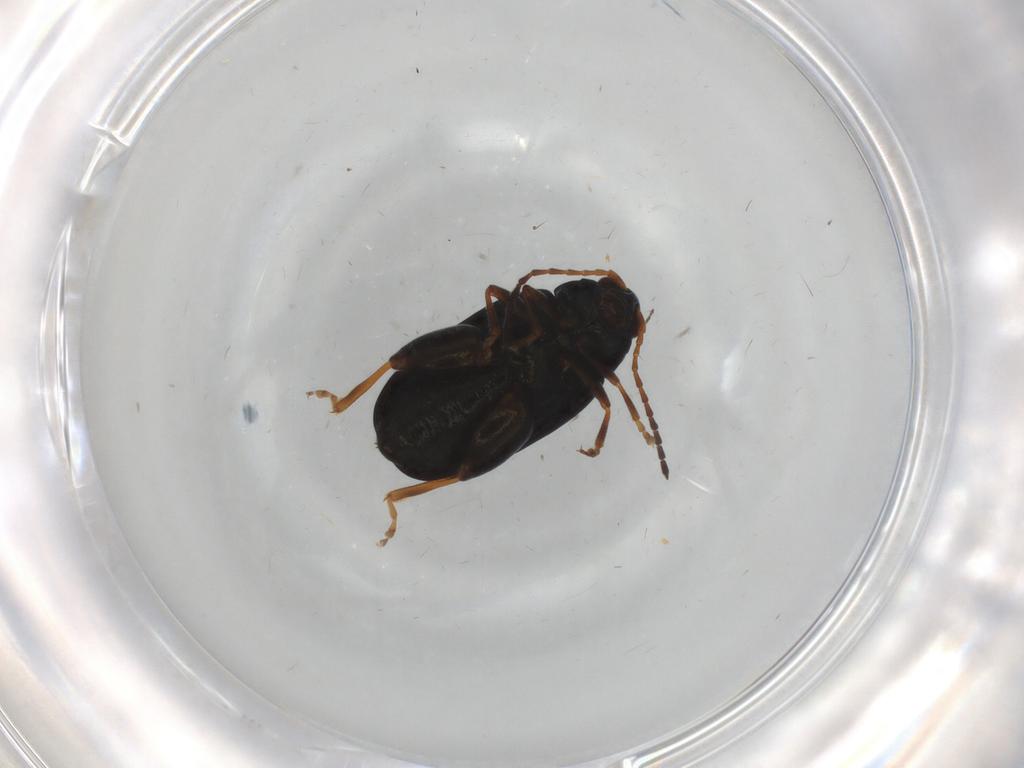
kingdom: Animalia
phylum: Arthropoda
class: Insecta
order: Coleoptera
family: Chrysomelidae
